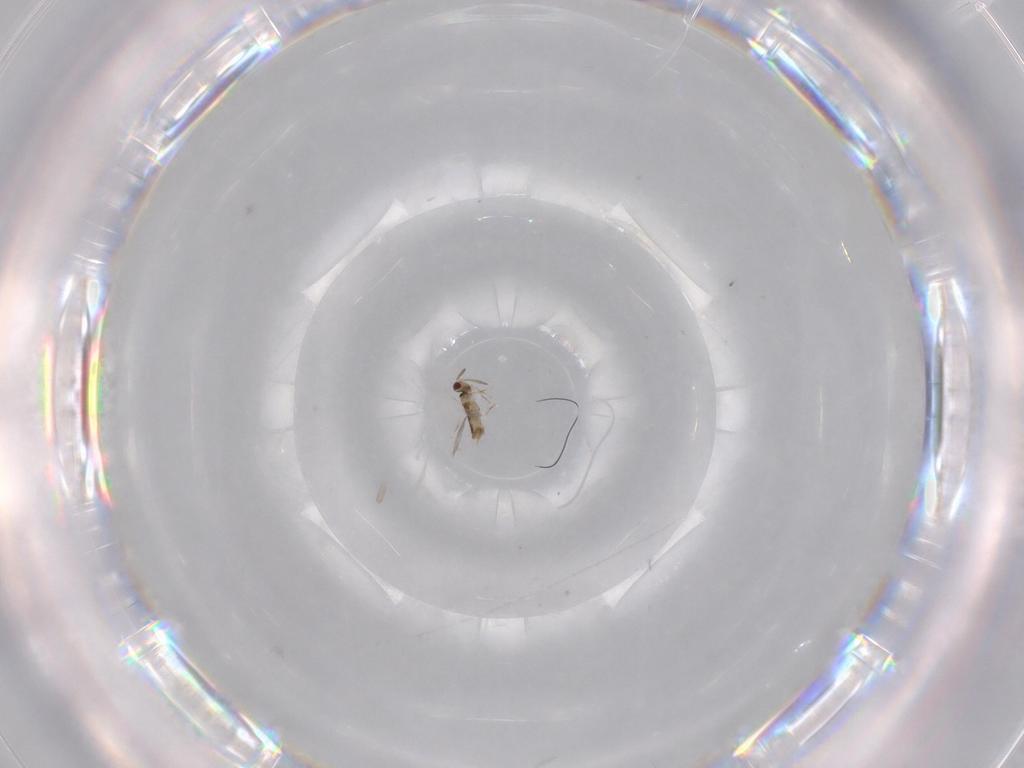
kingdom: Animalia
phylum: Arthropoda
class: Insecta
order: Hymenoptera
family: Aphelinidae
